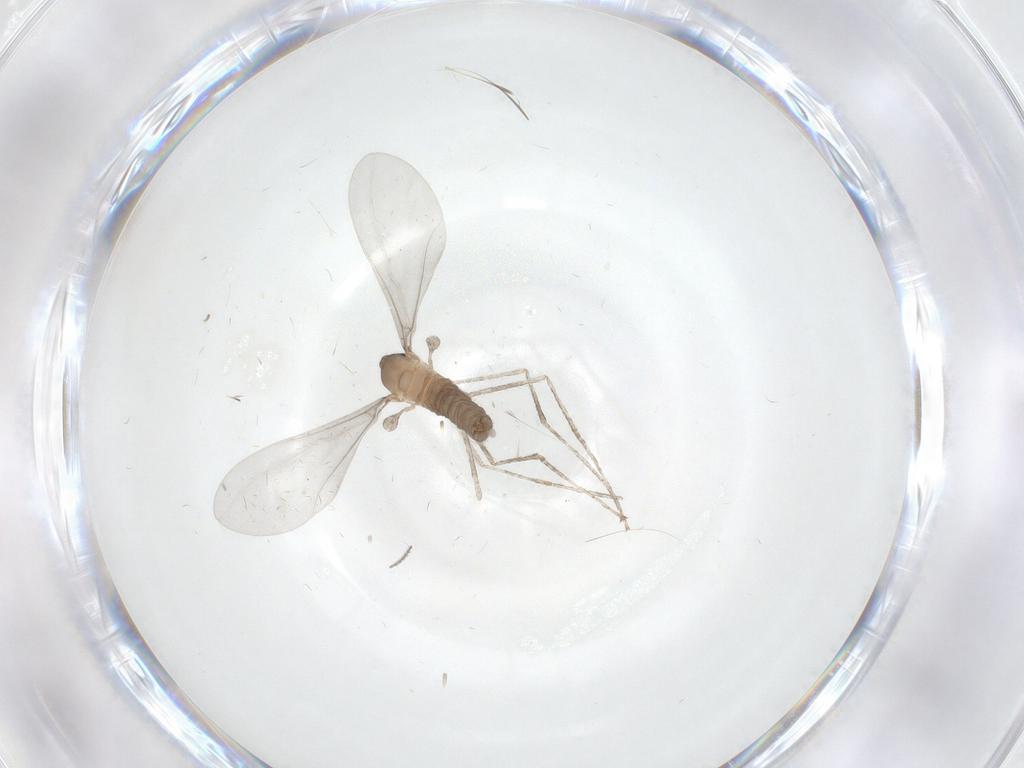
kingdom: Animalia
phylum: Arthropoda
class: Insecta
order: Diptera
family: Cecidomyiidae
